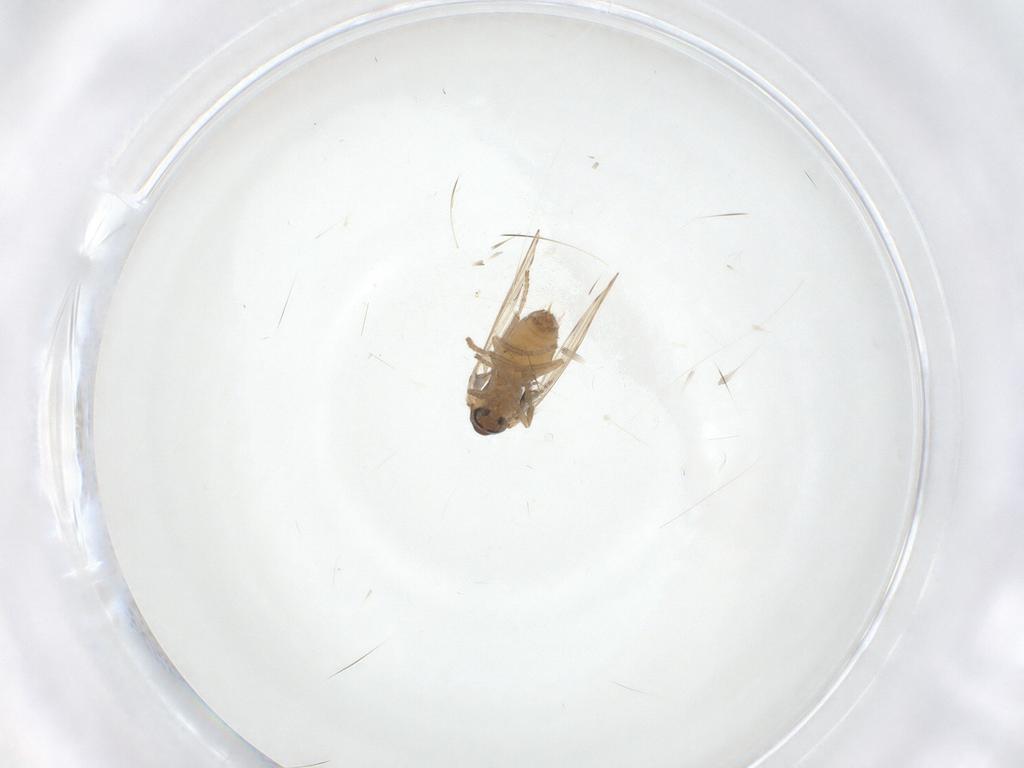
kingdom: Animalia
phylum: Arthropoda
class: Insecta
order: Diptera
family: Psychodidae
